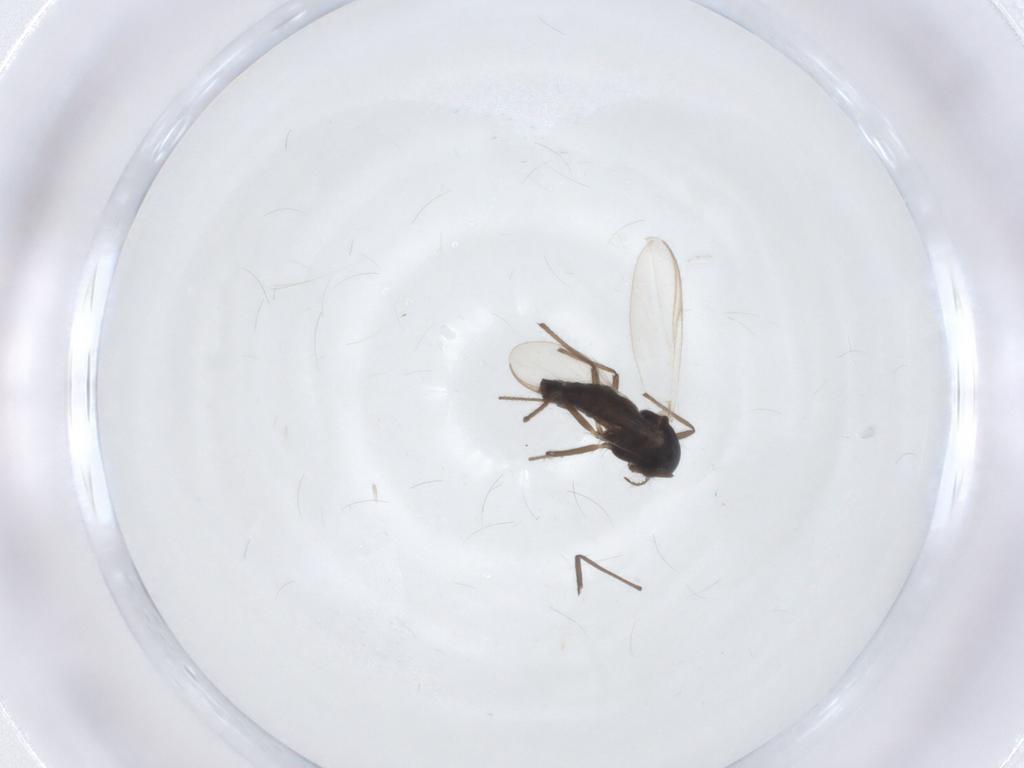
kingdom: Animalia
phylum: Arthropoda
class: Insecta
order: Diptera
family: Chironomidae
